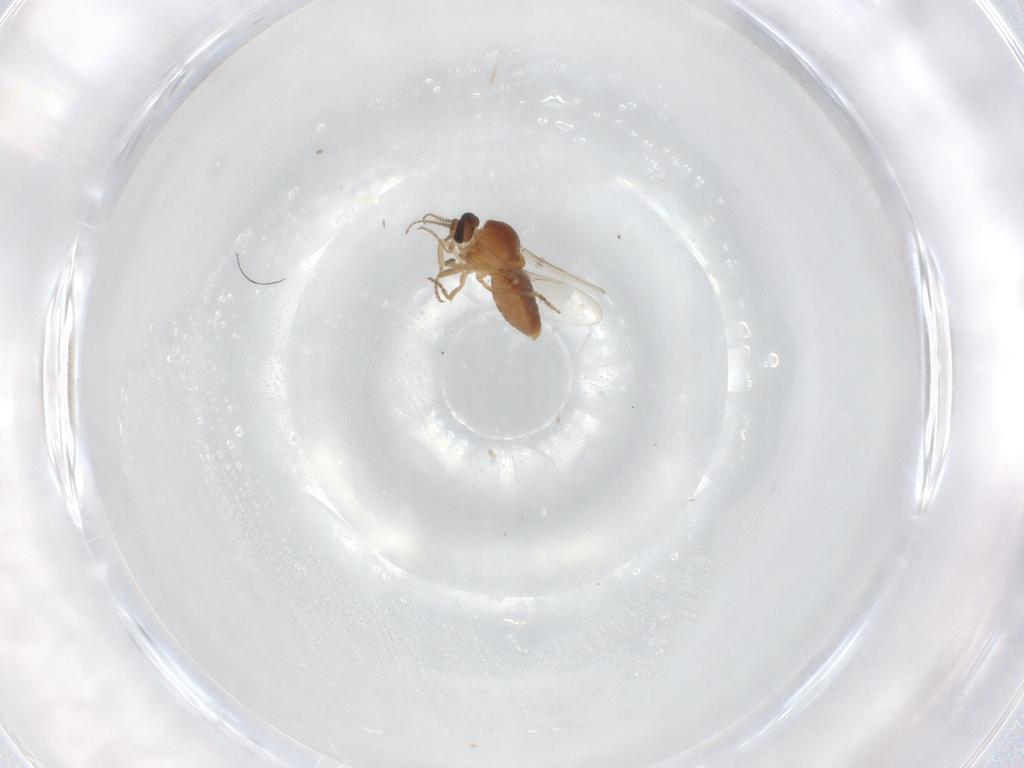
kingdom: Animalia
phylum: Arthropoda
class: Insecta
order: Diptera
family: Ceratopogonidae
